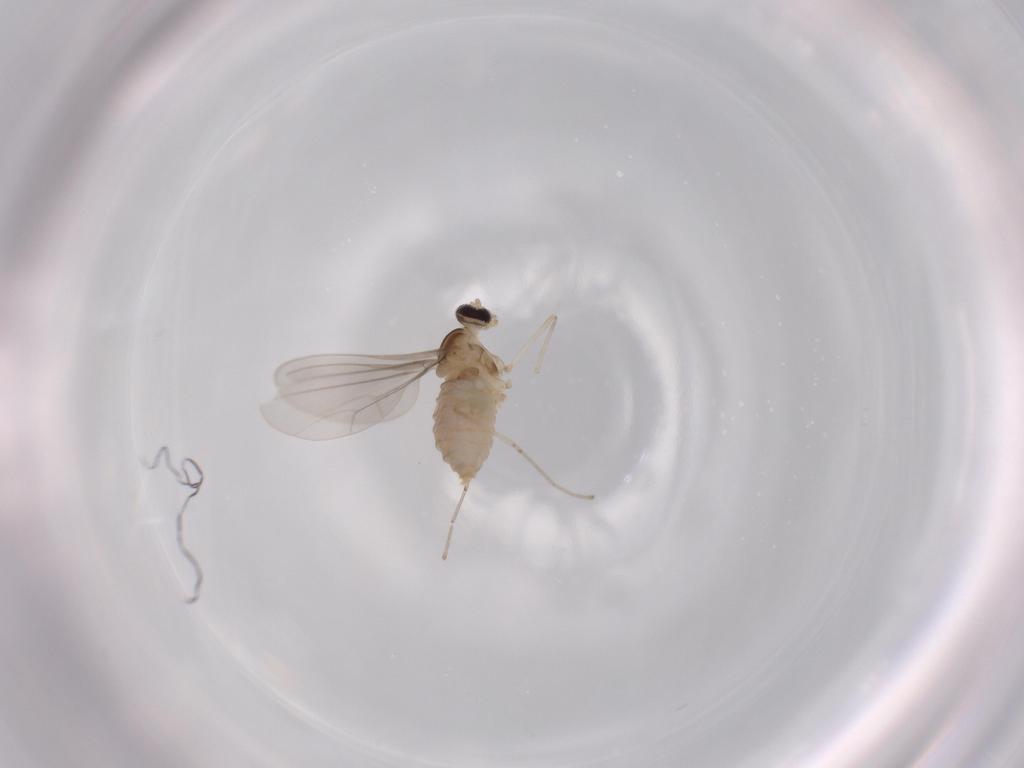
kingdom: Animalia
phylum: Arthropoda
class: Insecta
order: Diptera
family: Cecidomyiidae
